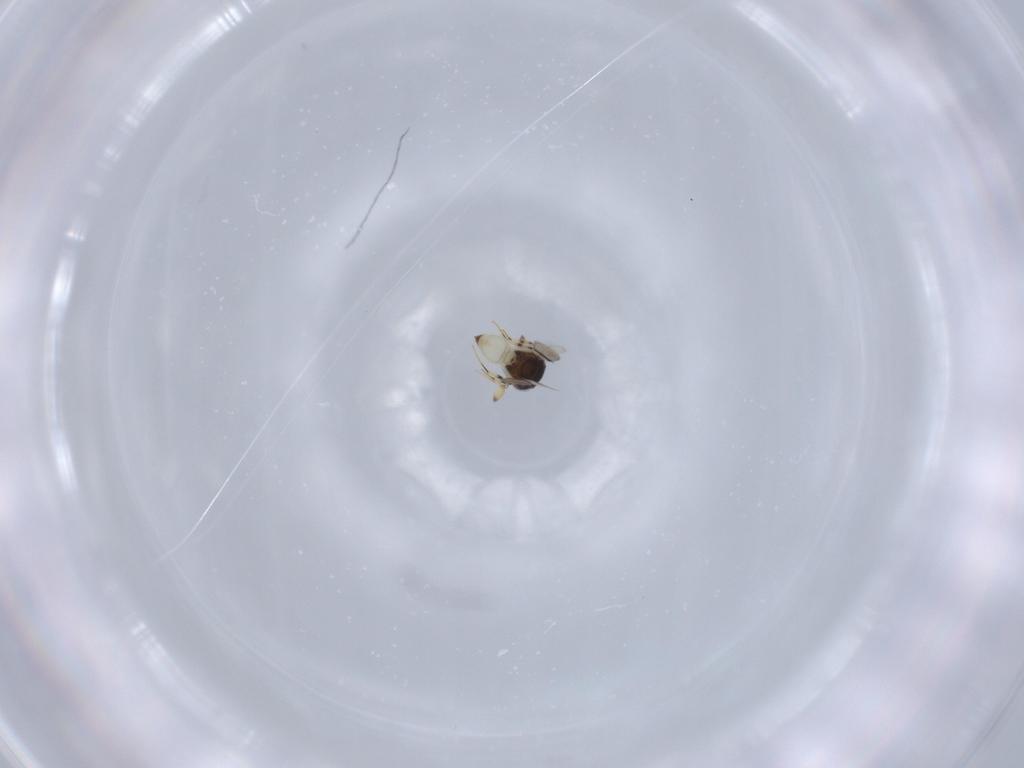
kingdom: Animalia
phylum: Arthropoda
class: Insecta
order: Hymenoptera
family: Scelionidae
